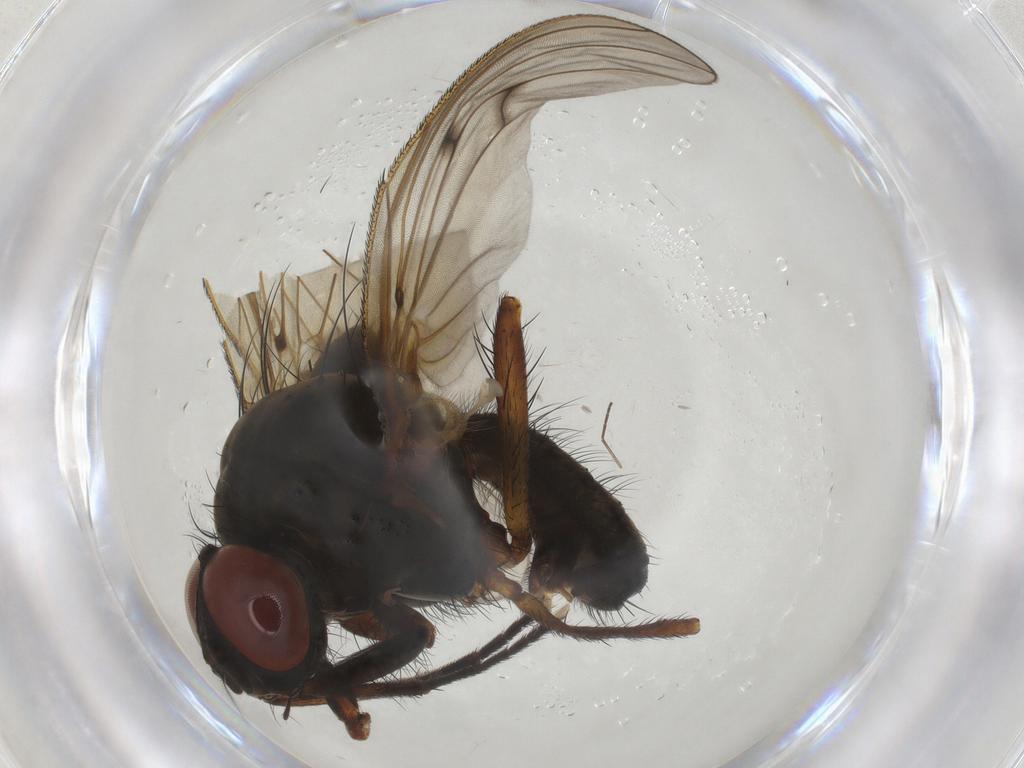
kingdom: Animalia
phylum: Arthropoda
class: Insecta
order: Diptera
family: Anthomyiidae
